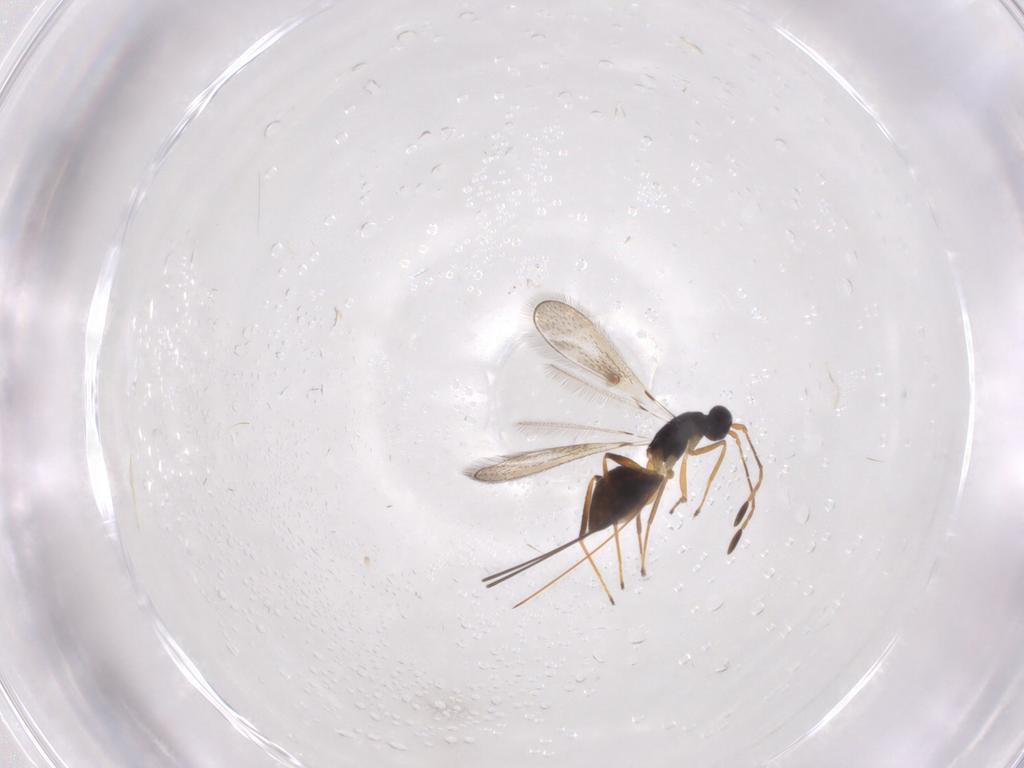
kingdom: Animalia
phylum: Arthropoda
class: Insecta
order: Hymenoptera
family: Mymaridae
